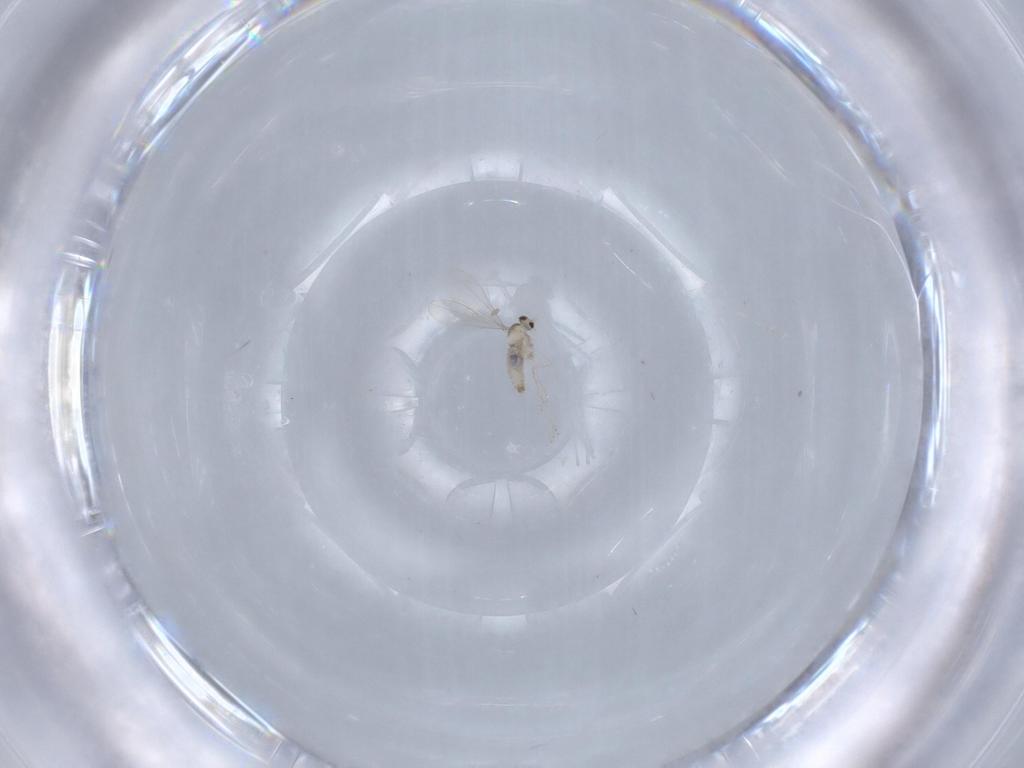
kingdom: Animalia
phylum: Arthropoda
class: Insecta
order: Diptera
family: Cecidomyiidae
